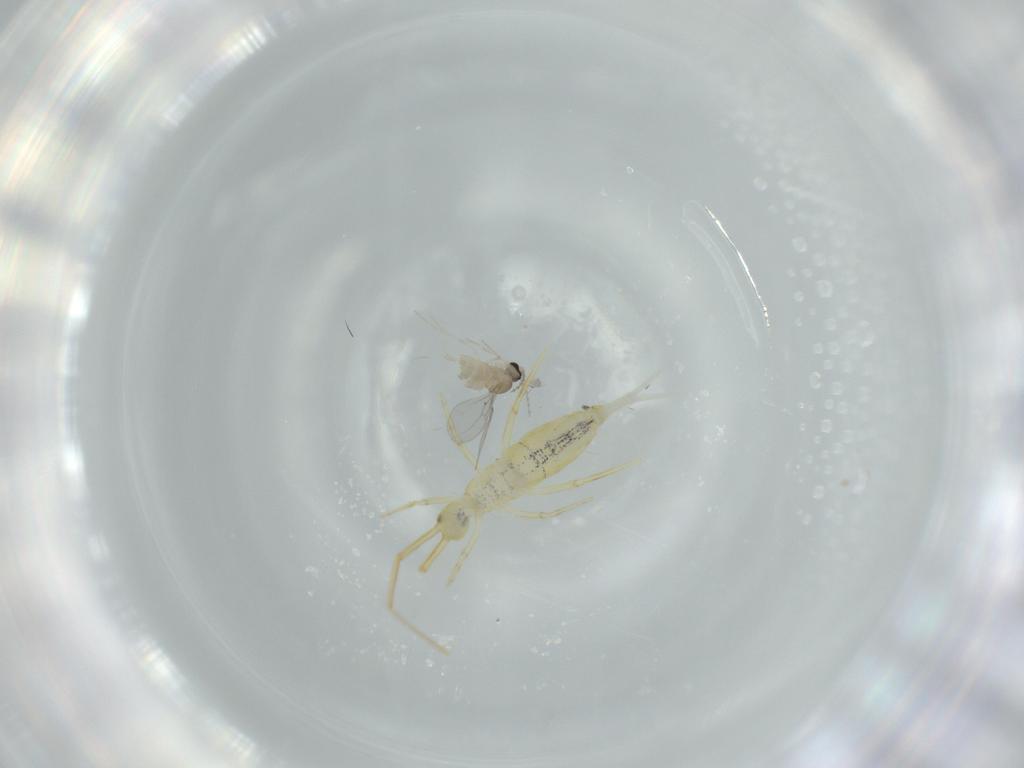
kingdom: Animalia
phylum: Arthropoda
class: Insecta
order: Diptera
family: Cecidomyiidae
